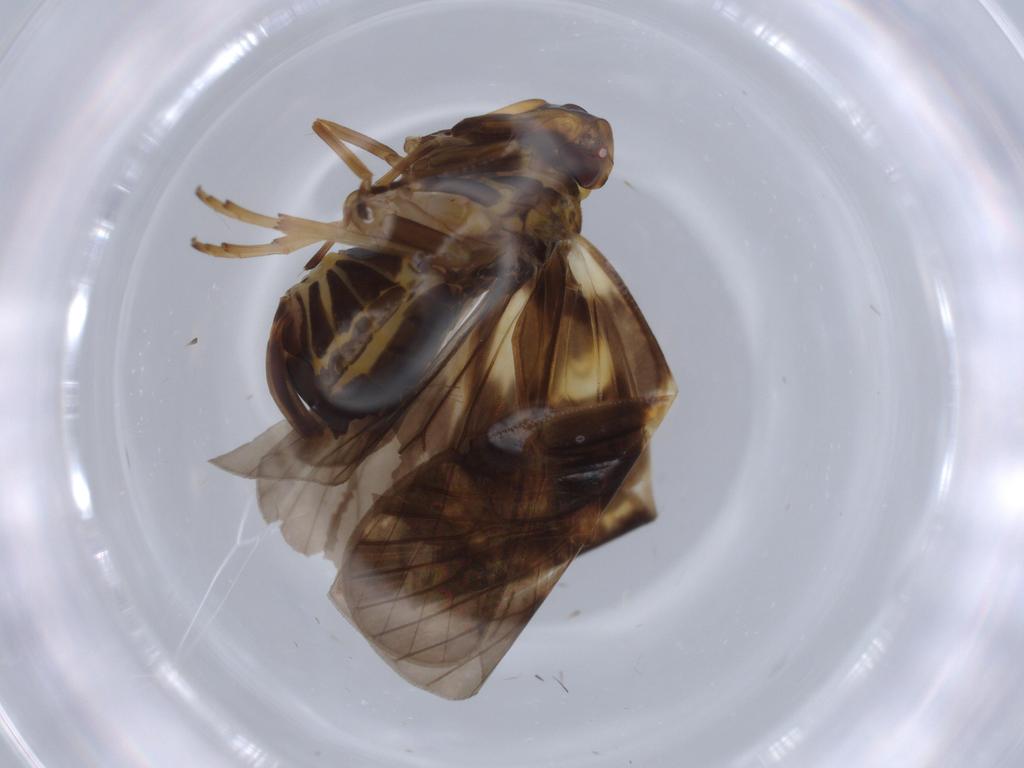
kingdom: Animalia
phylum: Arthropoda
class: Insecta
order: Hemiptera
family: Cixiidae
